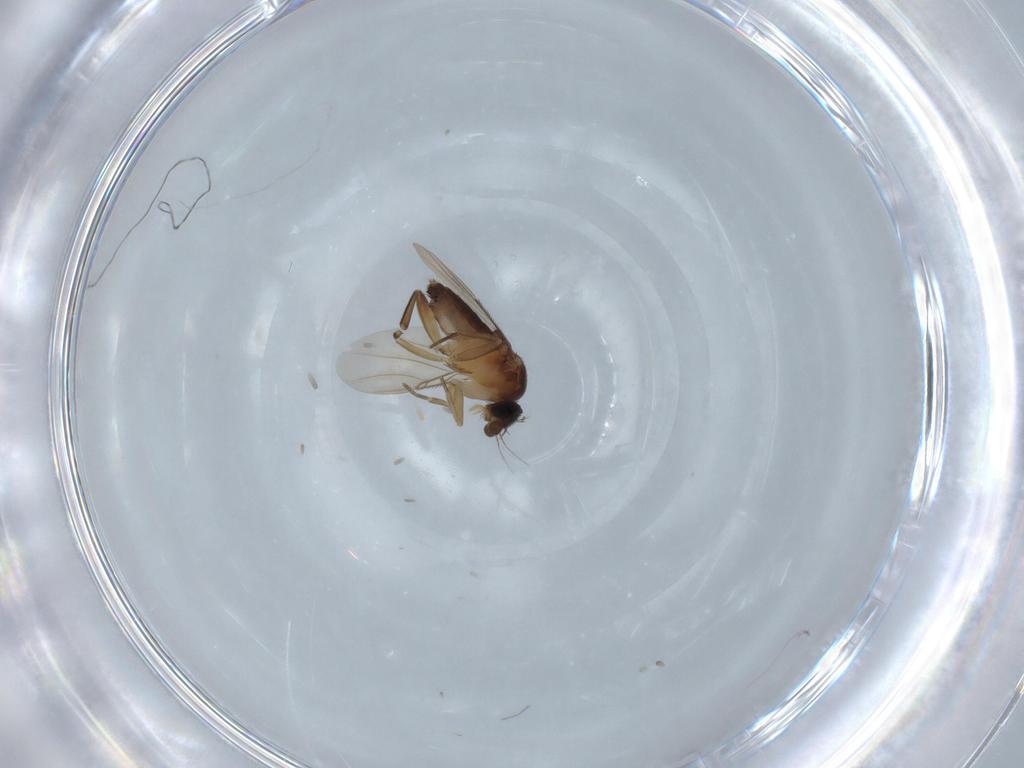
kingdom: Animalia
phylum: Arthropoda
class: Insecta
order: Diptera
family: Phoridae
